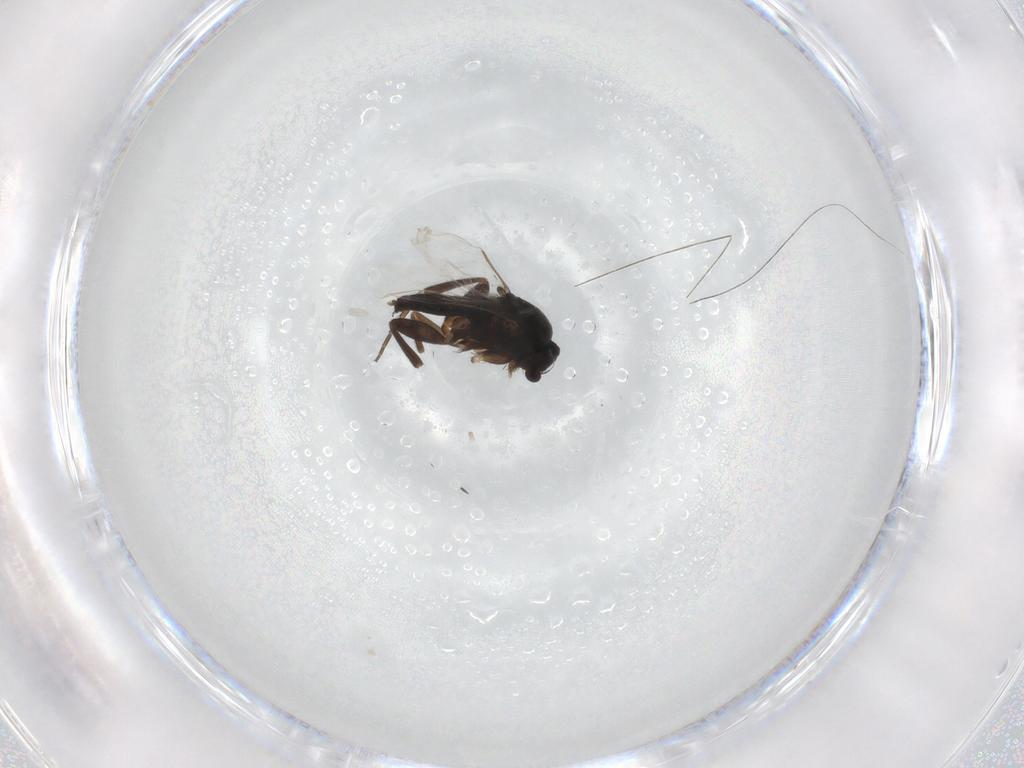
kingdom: Animalia
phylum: Arthropoda
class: Insecta
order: Diptera
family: Phoridae
